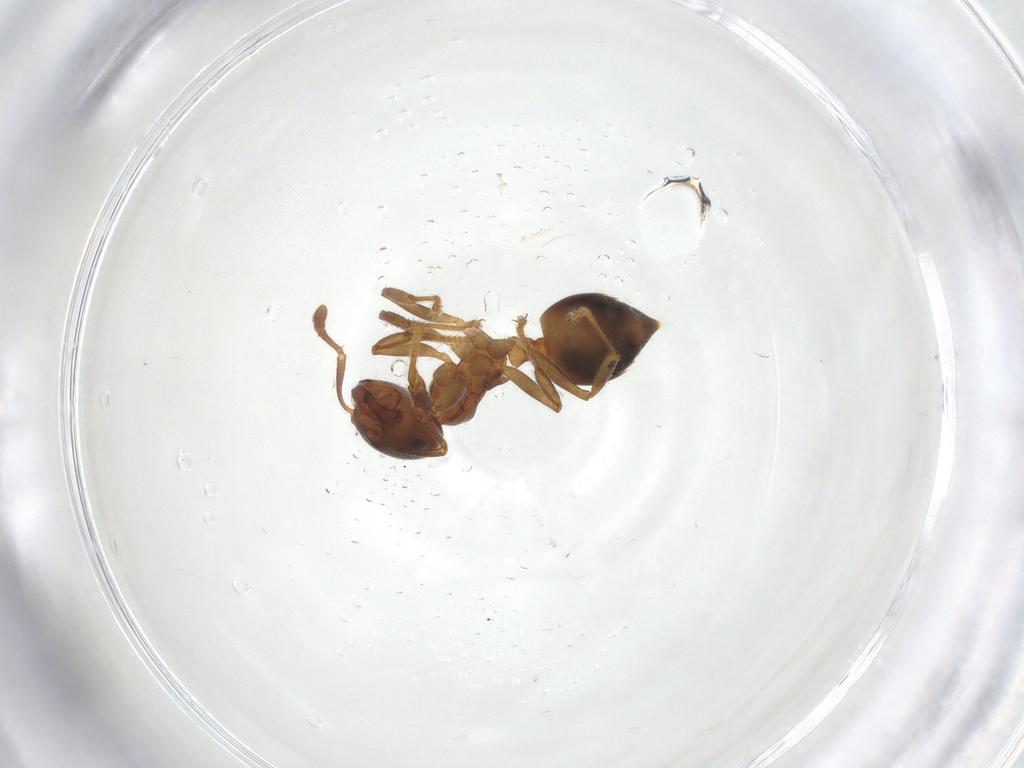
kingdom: Animalia
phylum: Arthropoda
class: Insecta
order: Hymenoptera
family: Formicidae
